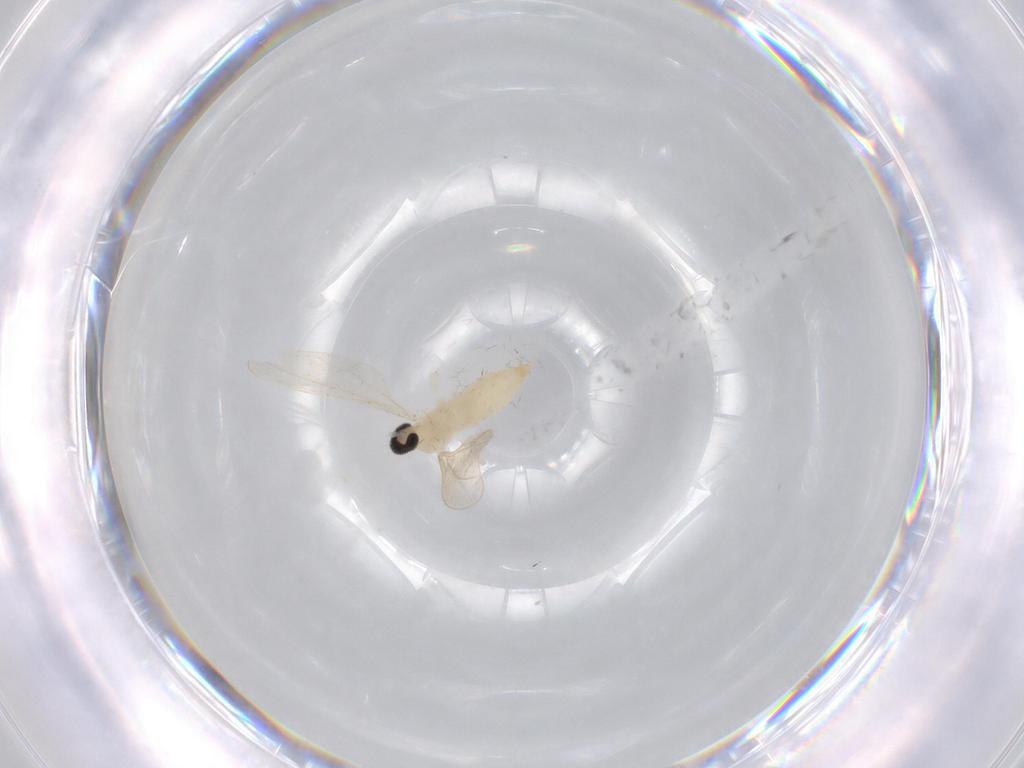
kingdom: Animalia
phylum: Arthropoda
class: Insecta
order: Diptera
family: Cecidomyiidae
